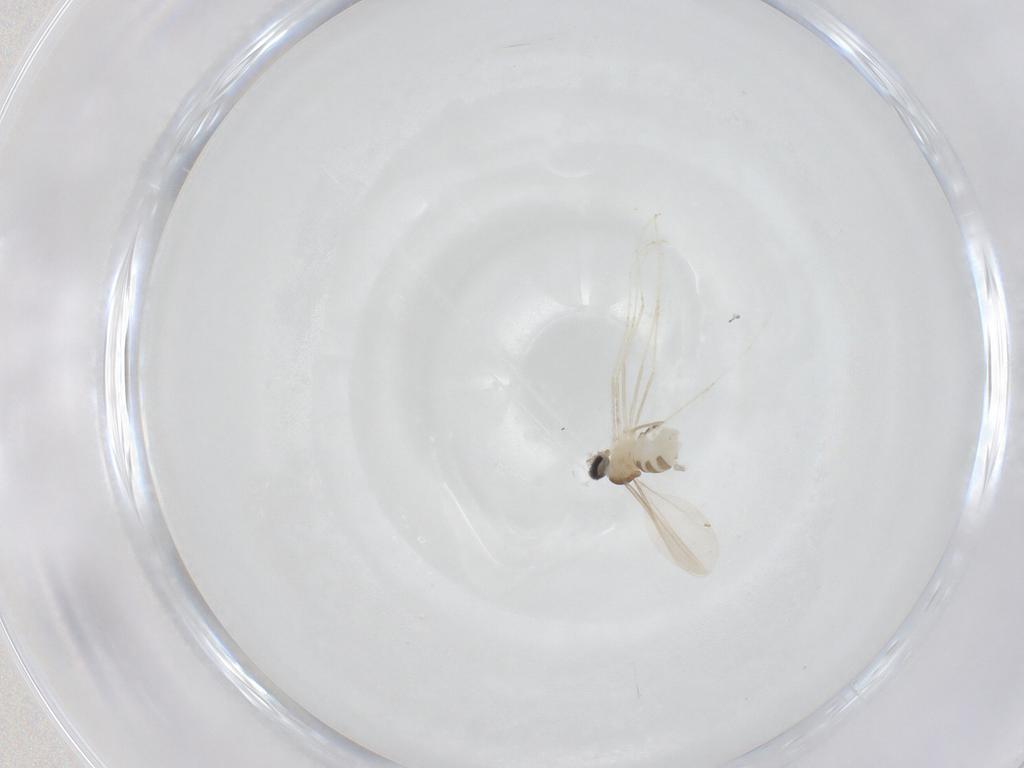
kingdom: Animalia
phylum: Arthropoda
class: Insecta
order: Diptera
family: Cecidomyiidae
